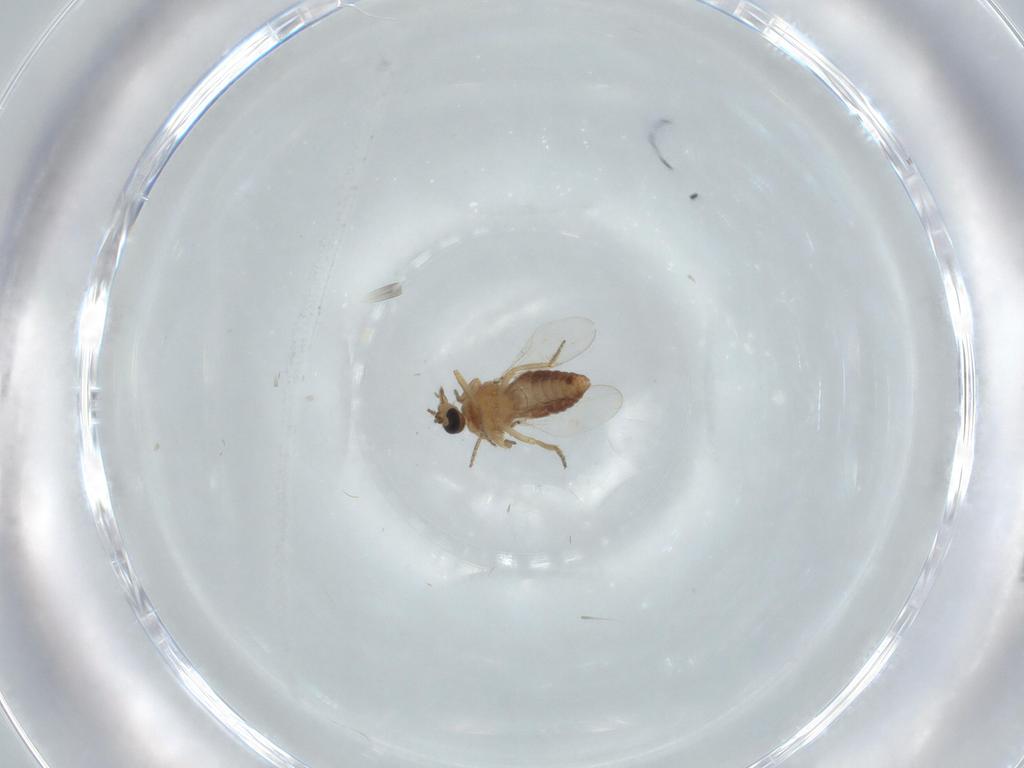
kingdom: Animalia
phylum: Arthropoda
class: Insecta
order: Diptera
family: Ceratopogonidae
